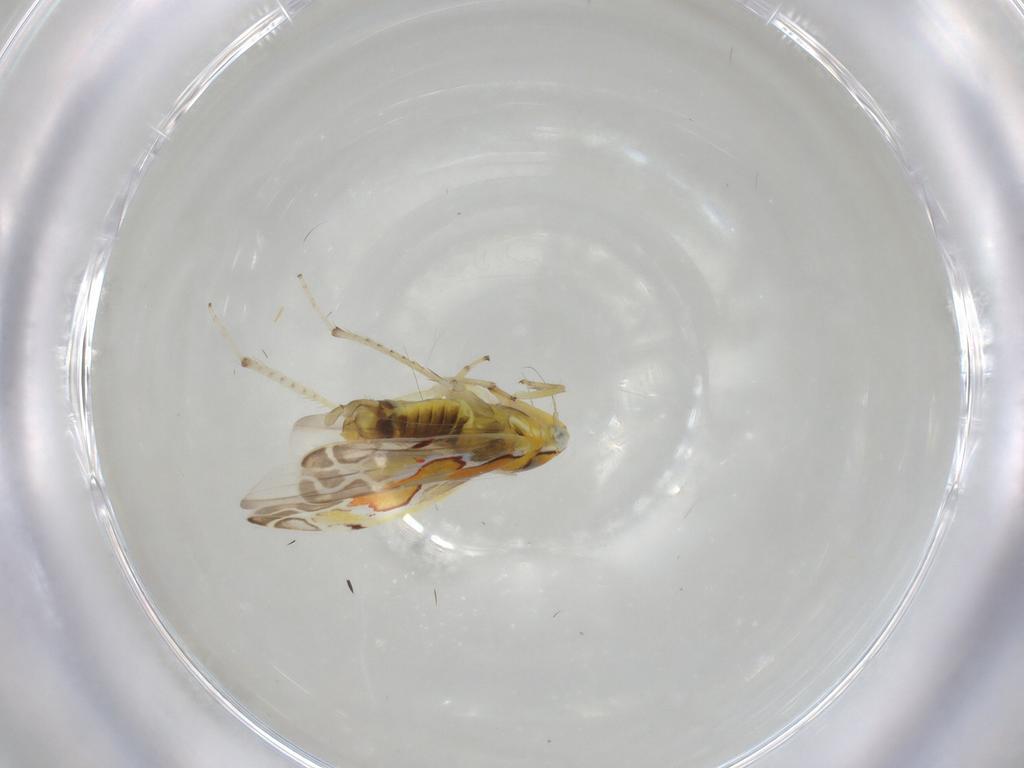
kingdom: Animalia
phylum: Arthropoda
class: Insecta
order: Hemiptera
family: Cicadellidae
